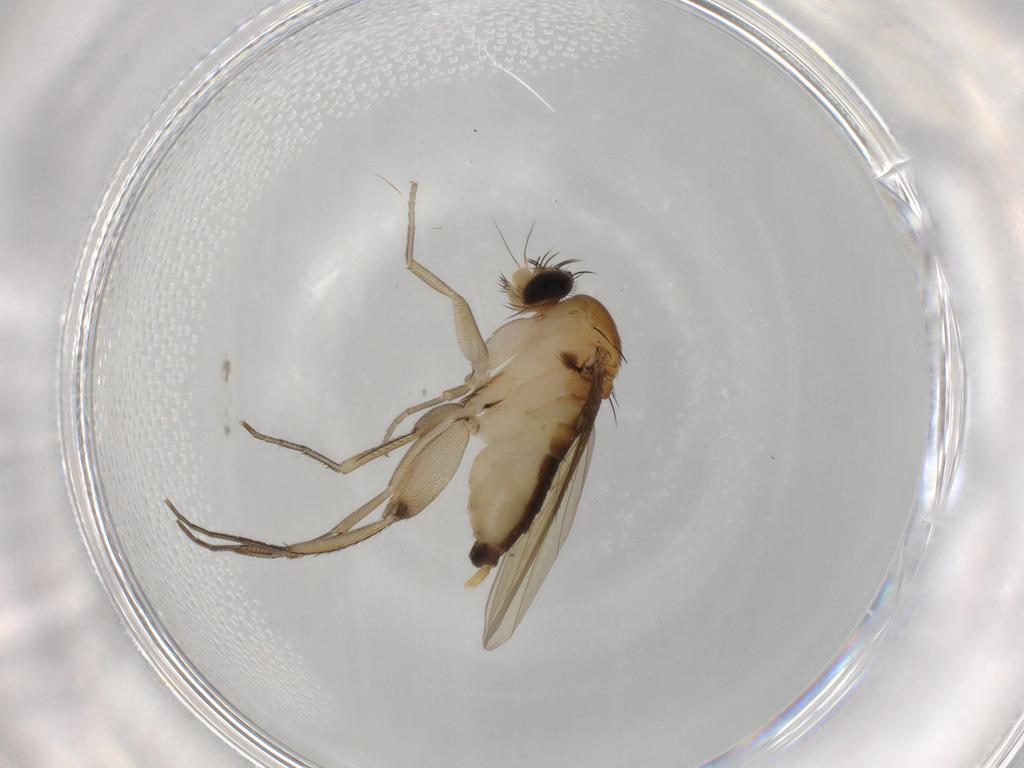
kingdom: Animalia
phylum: Arthropoda
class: Insecta
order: Diptera
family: Phoridae
